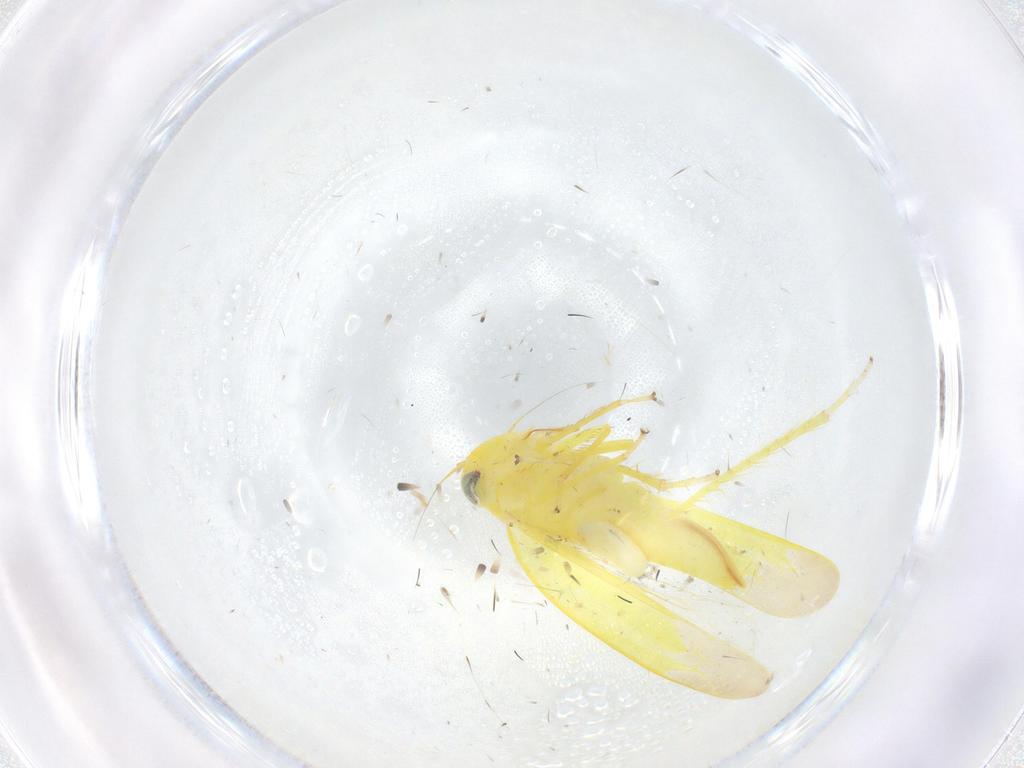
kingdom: Animalia
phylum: Arthropoda
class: Insecta
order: Hemiptera
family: Cicadellidae
